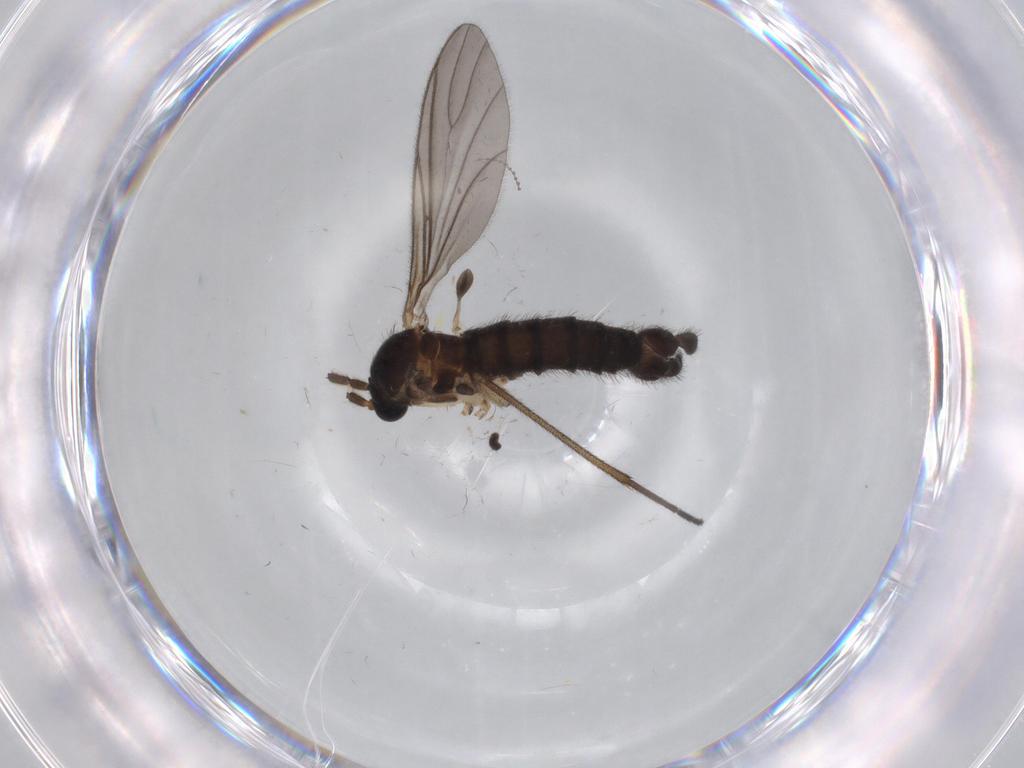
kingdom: Animalia
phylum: Arthropoda
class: Insecta
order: Diptera
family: Sciaridae
